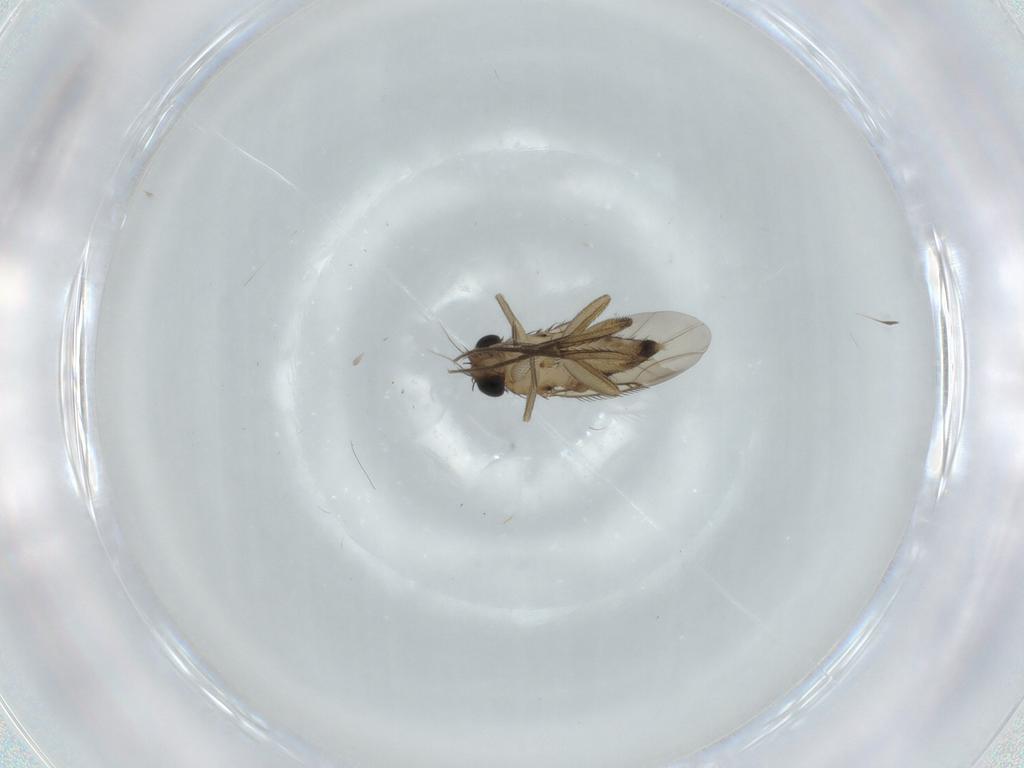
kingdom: Animalia
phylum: Arthropoda
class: Insecta
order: Diptera
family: Phoridae
